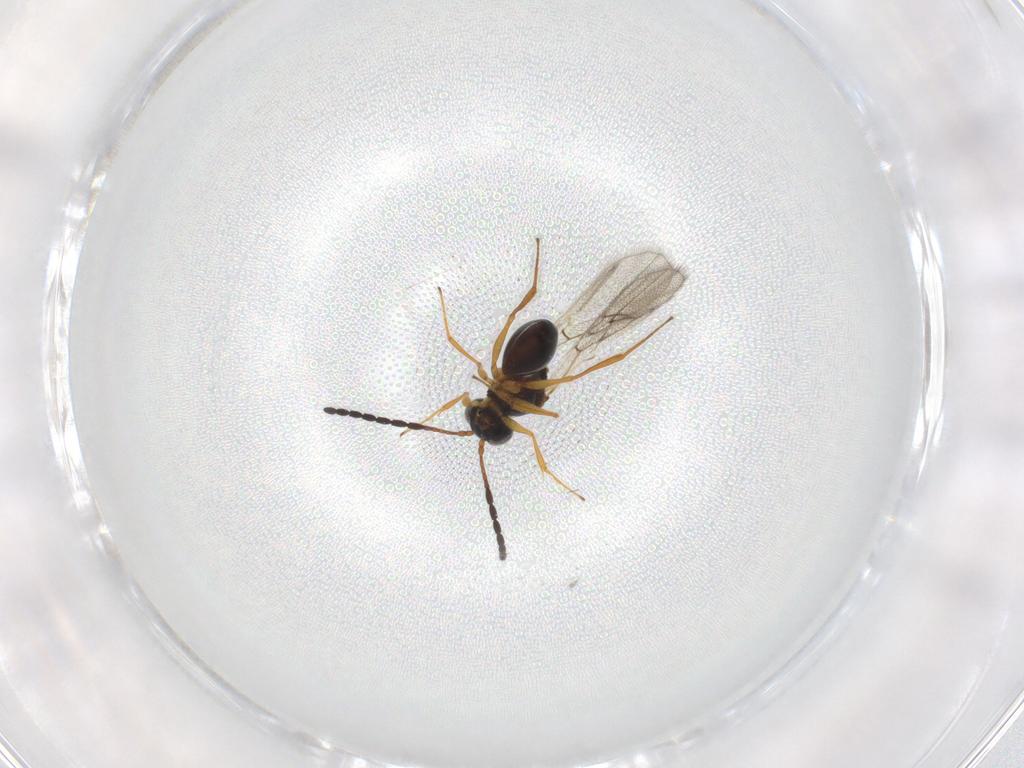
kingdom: Animalia
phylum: Arthropoda
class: Insecta
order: Hymenoptera
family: Figitidae
